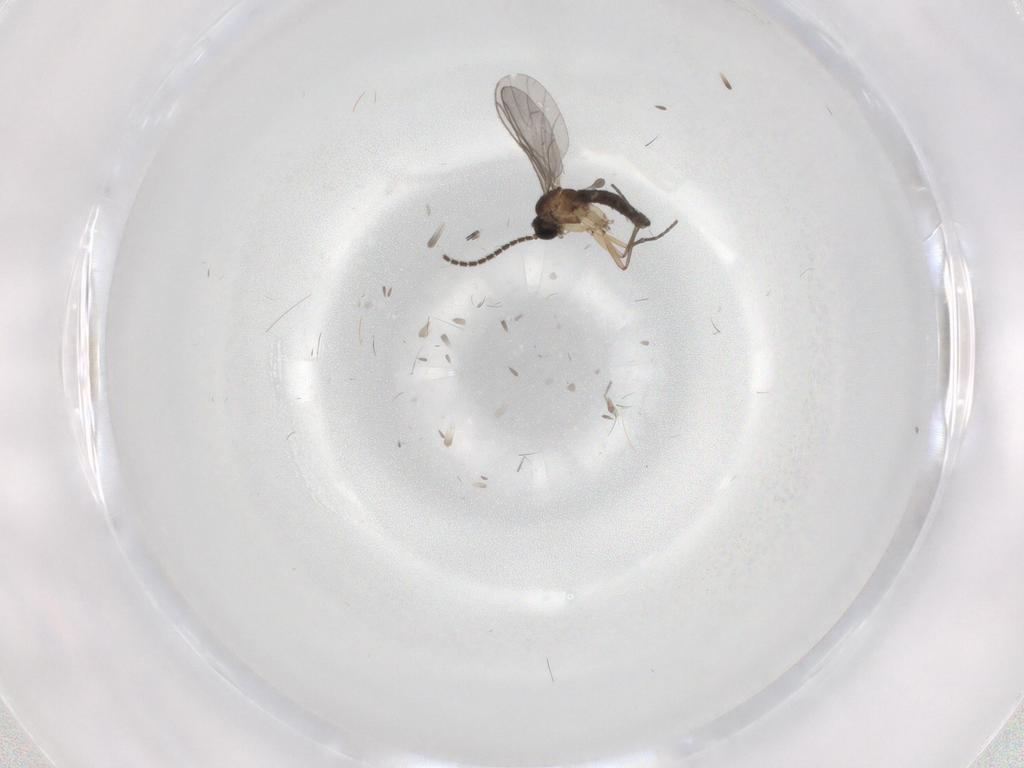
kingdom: Animalia
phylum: Arthropoda
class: Insecta
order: Diptera
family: Sciaridae
